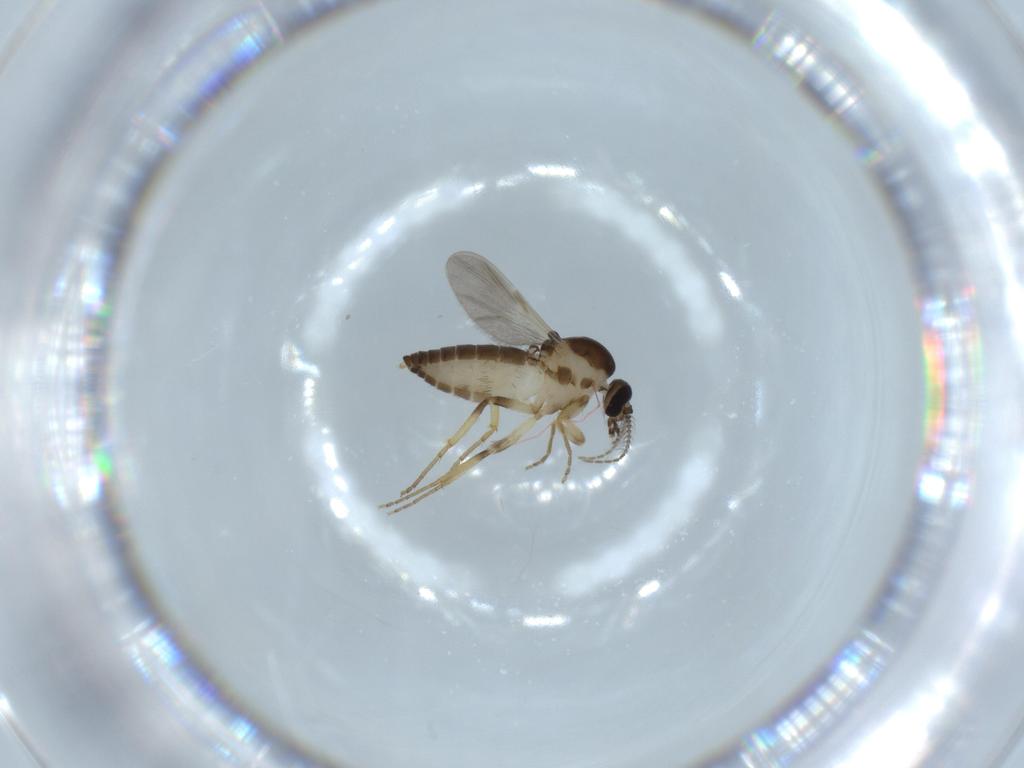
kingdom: Animalia
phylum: Arthropoda
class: Insecta
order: Diptera
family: Ceratopogonidae
